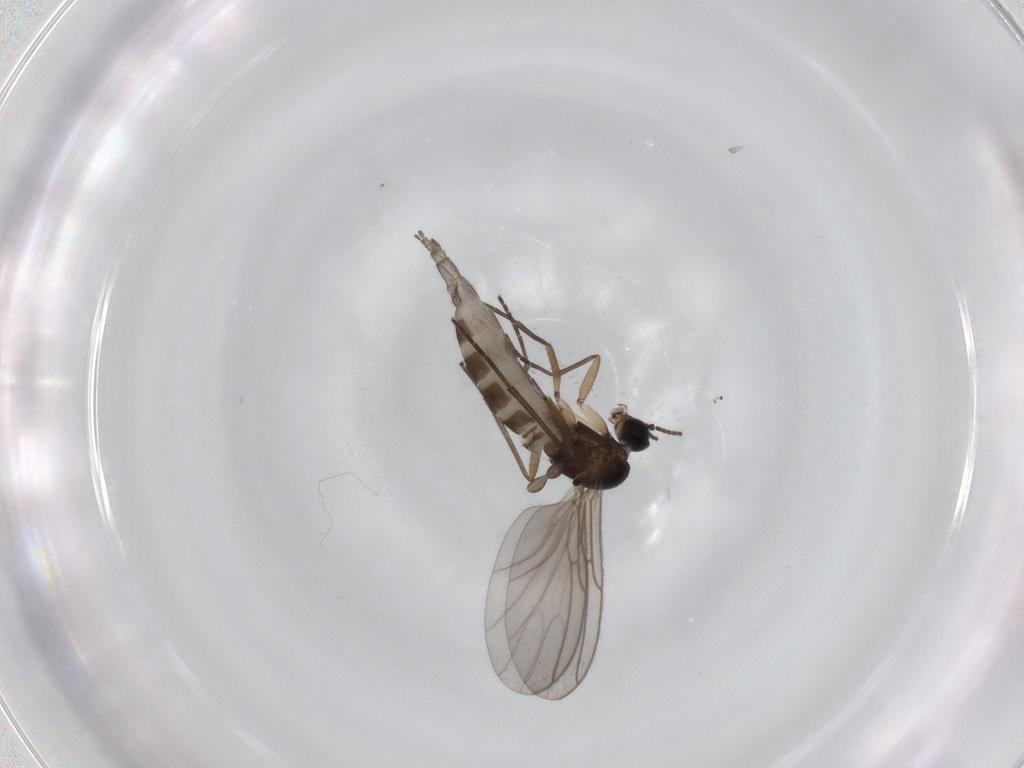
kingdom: Animalia
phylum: Arthropoda
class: Insecta
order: Diptera
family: Sciaridae
